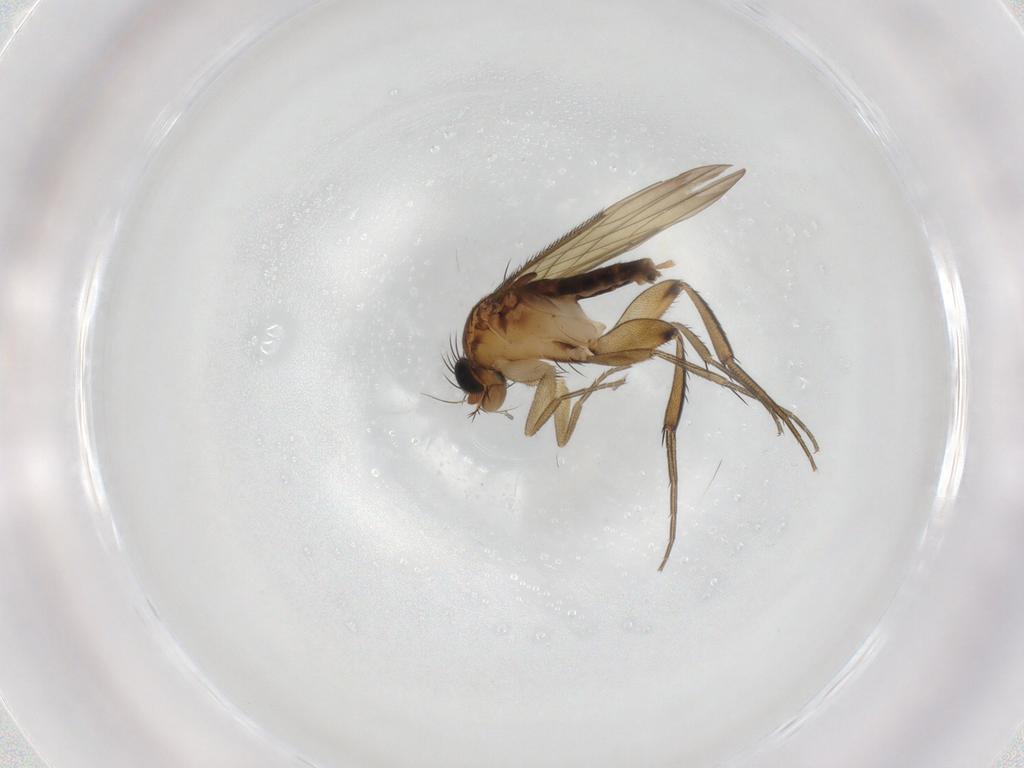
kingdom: Animalia
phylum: Arthropoda
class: Insecta
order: Diptera
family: Phoridae
